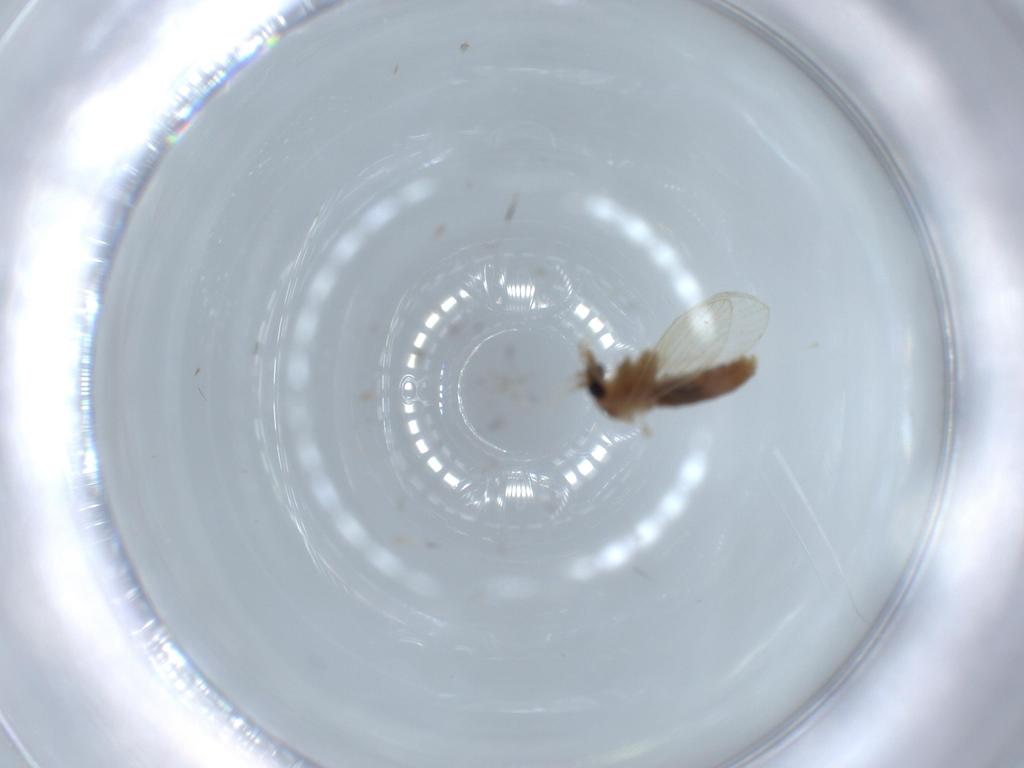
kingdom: Animalia
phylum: Arthropoda
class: Insecta
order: Diptera
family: Psychodidae
